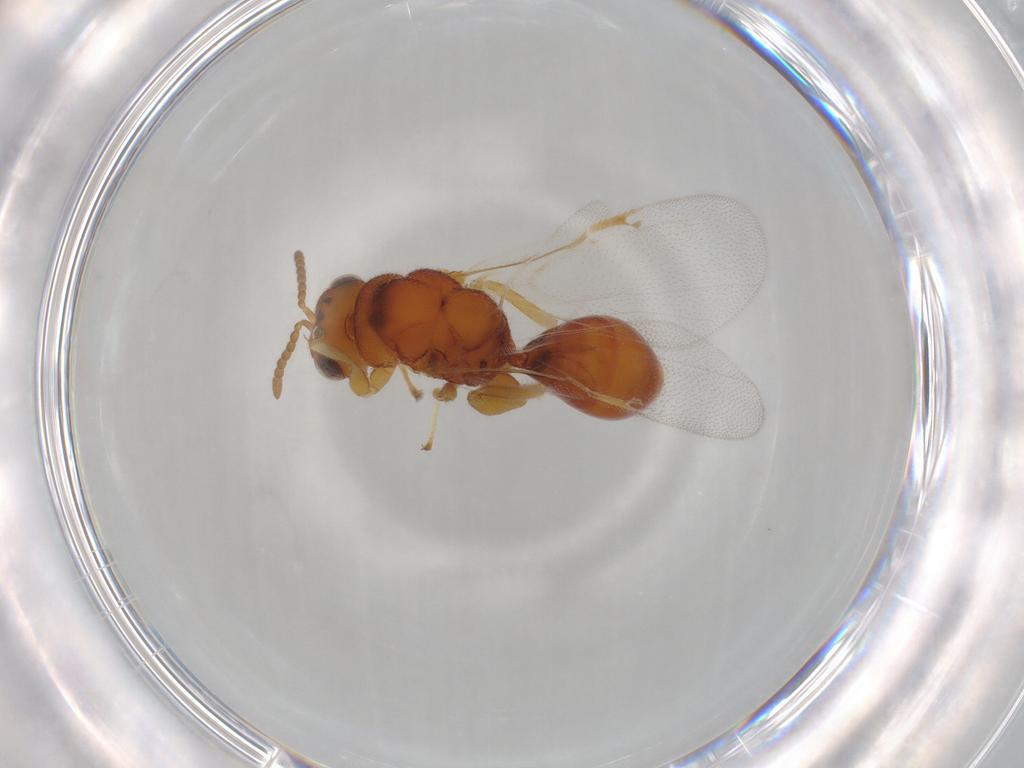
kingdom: Animalia
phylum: Arthropoda
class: Insecta
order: Hymenoptera
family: Eurytomidae
